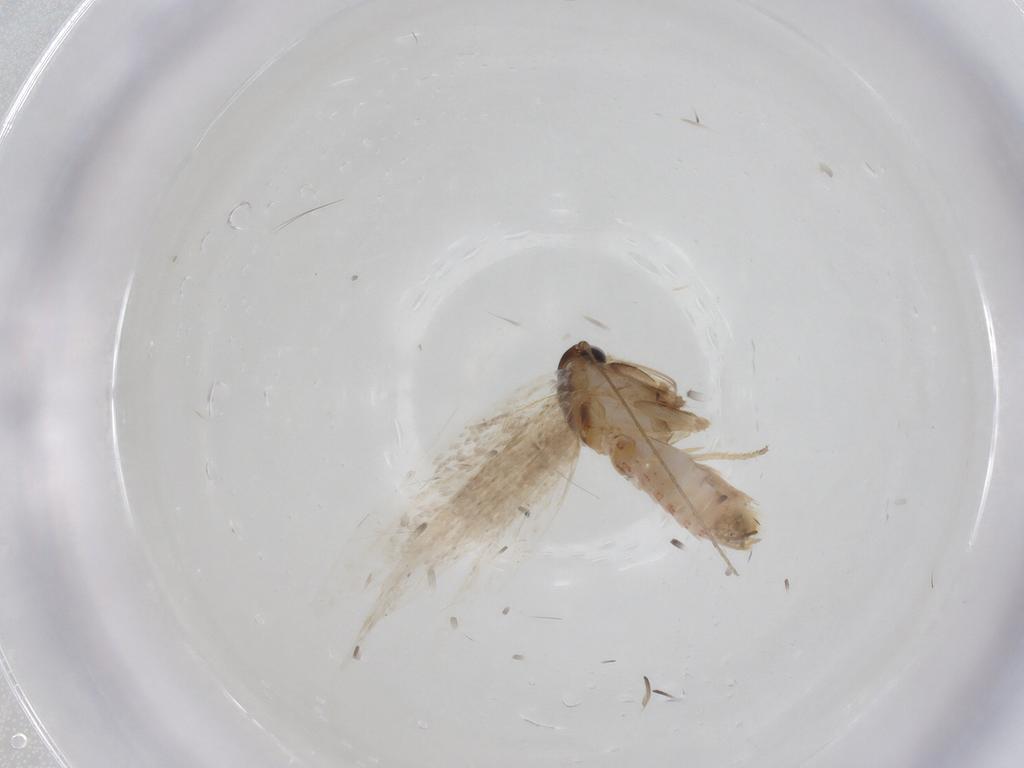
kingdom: Animalia
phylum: Arthropoda
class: Insecta
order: Lepidoptera
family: Gelechiidae
